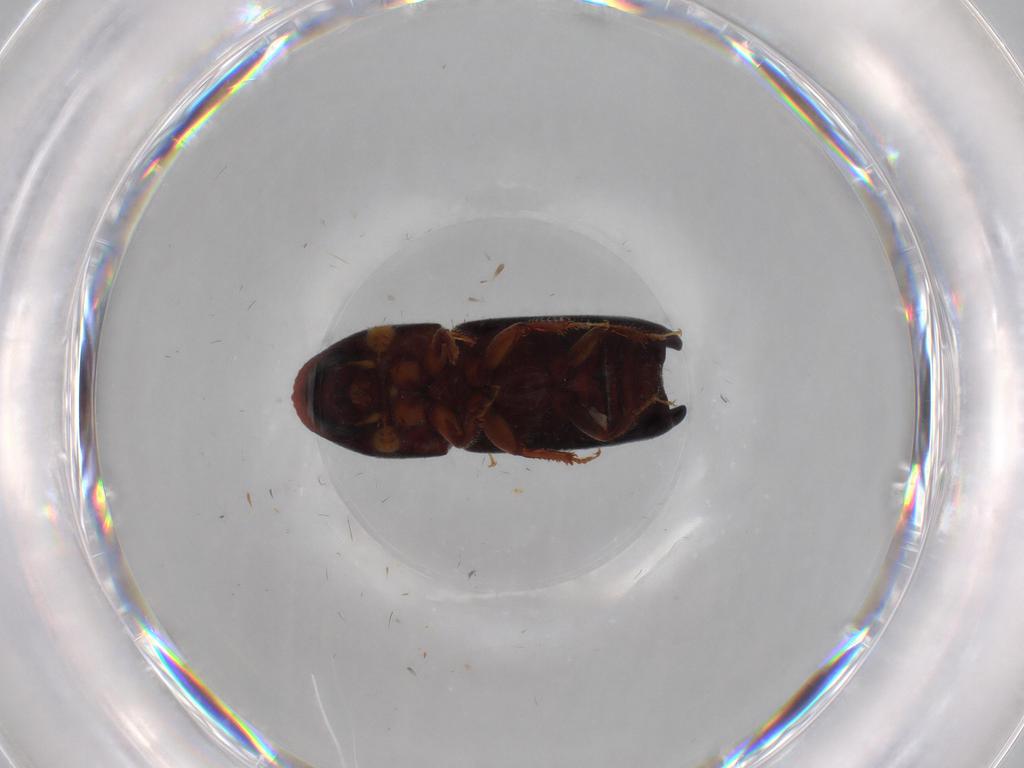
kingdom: Animalia
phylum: Arthropoda
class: Insecta
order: Coleoptera
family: Curculionidae
